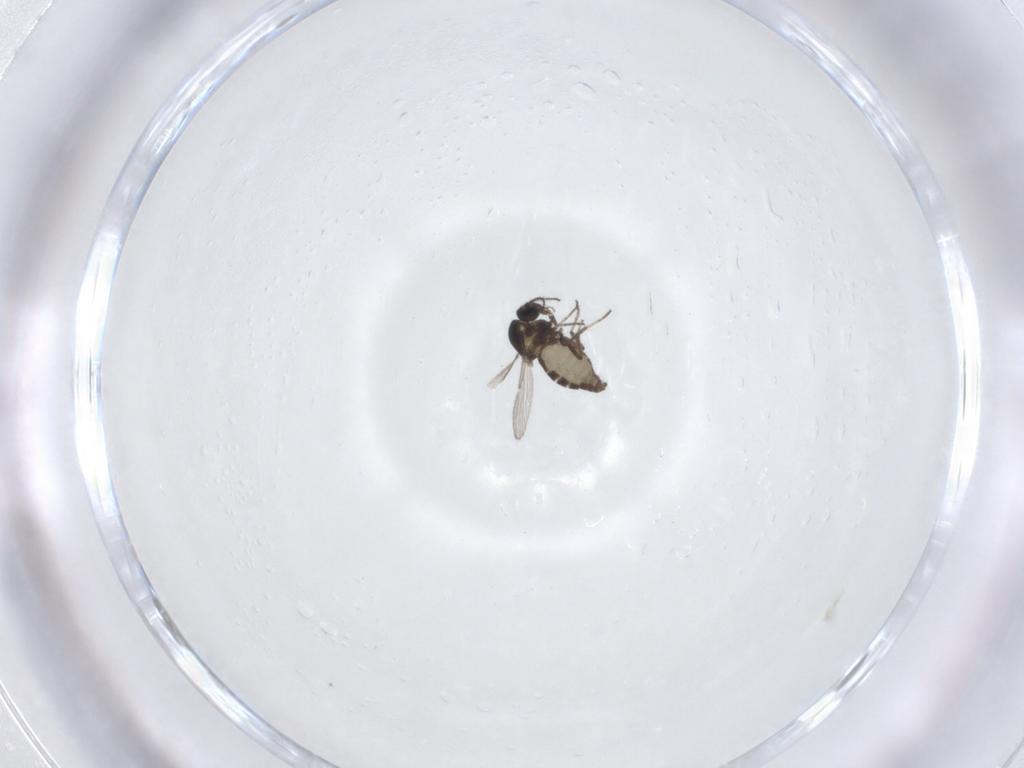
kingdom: Animalia
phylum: Arthropoda
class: Insecta
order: Diptera
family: Ceratopogonidae
